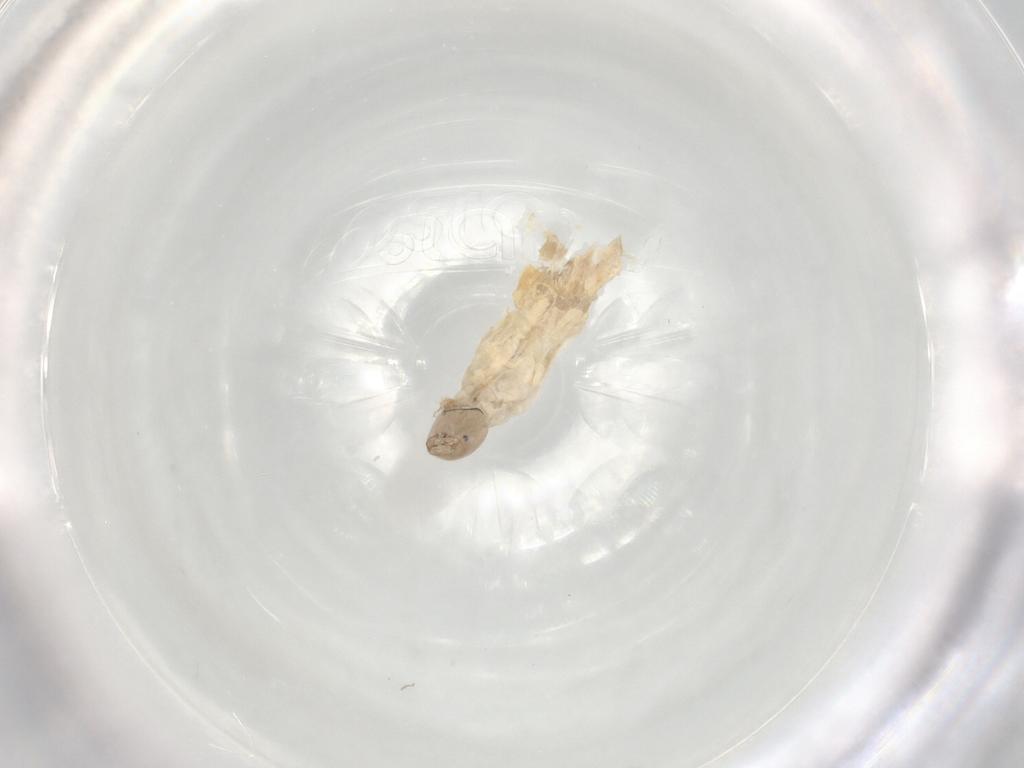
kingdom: Animalia
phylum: Arthropoda
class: Insecta
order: Diptera
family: Chironomidae
